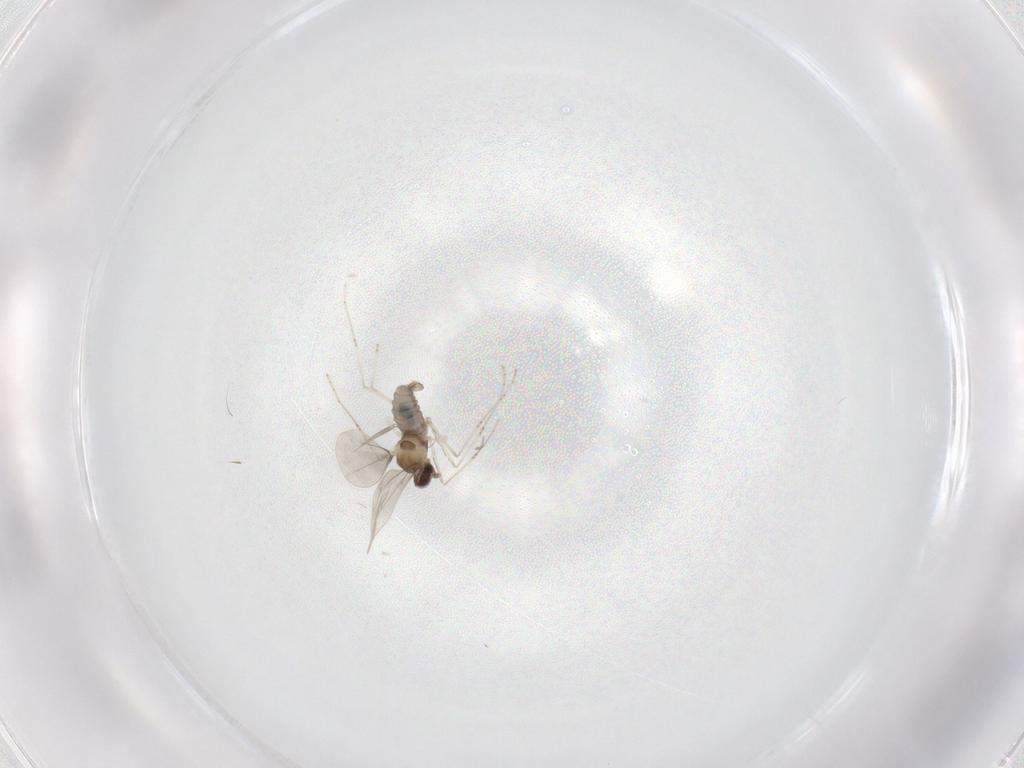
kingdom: Animalia
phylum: Arthropoda
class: Insecta
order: Diptera
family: Cecidomyiidae
